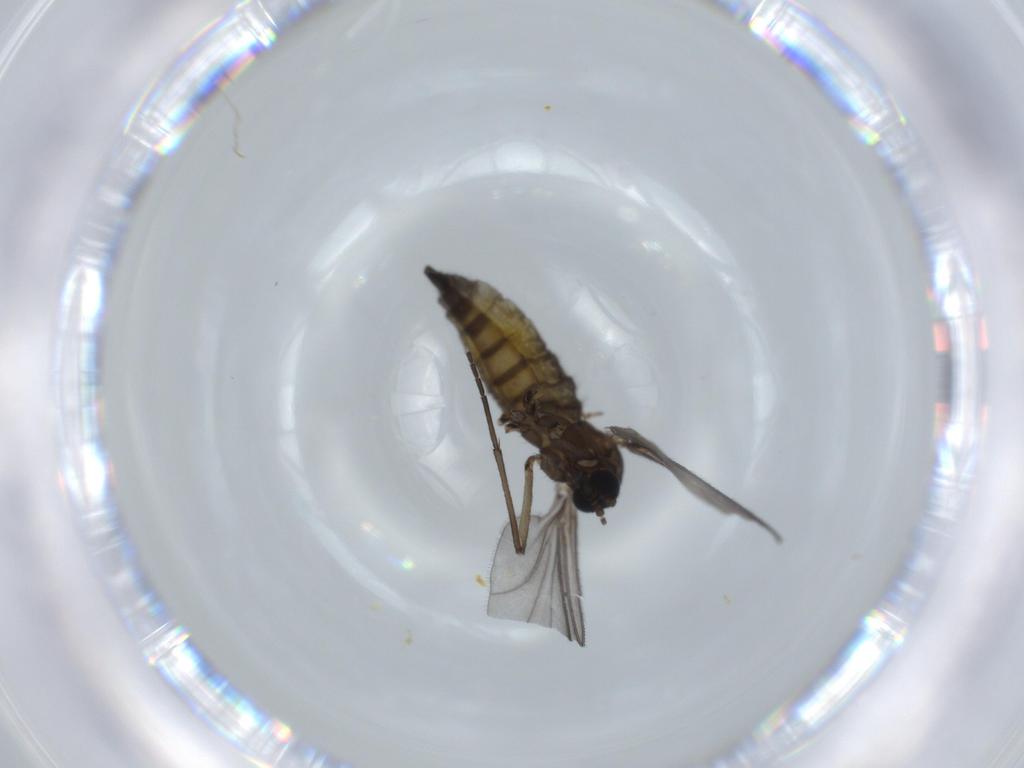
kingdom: Animalia
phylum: Arthropoda
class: Insecta
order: Diptera
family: Sciaridae
